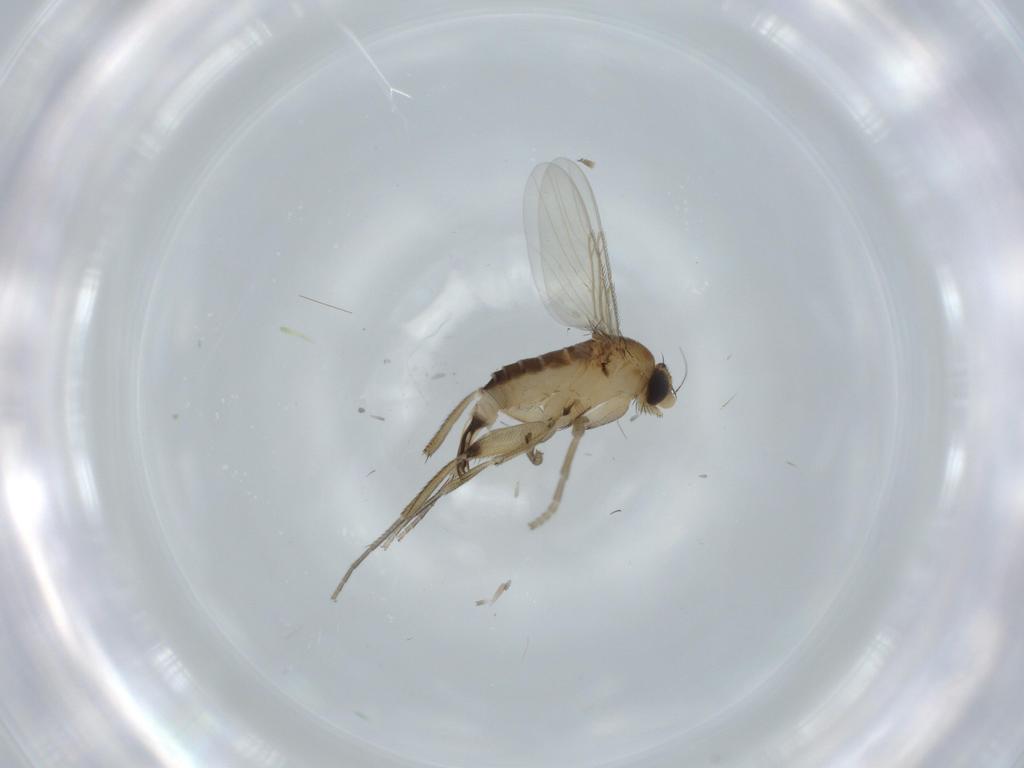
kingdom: Animalia
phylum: Arthropoda
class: Insecta
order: Diptera
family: Phoridae
